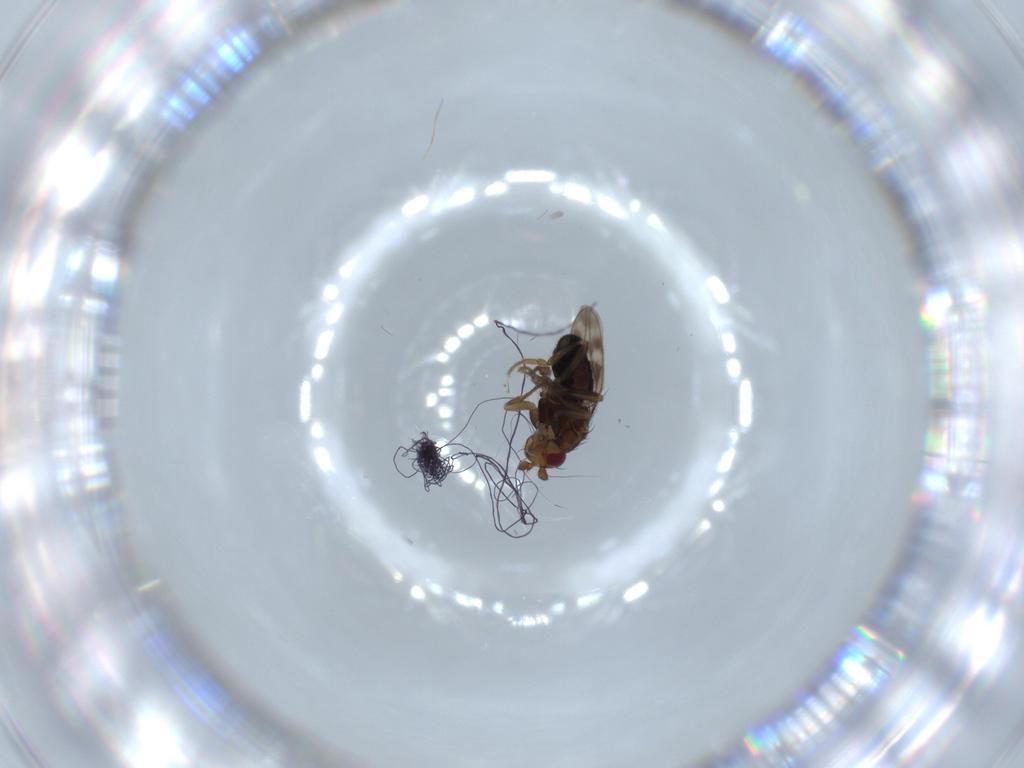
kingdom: Animalia
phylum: Arthropoda
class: Insecta
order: Diptera
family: Sphaeroceridae
